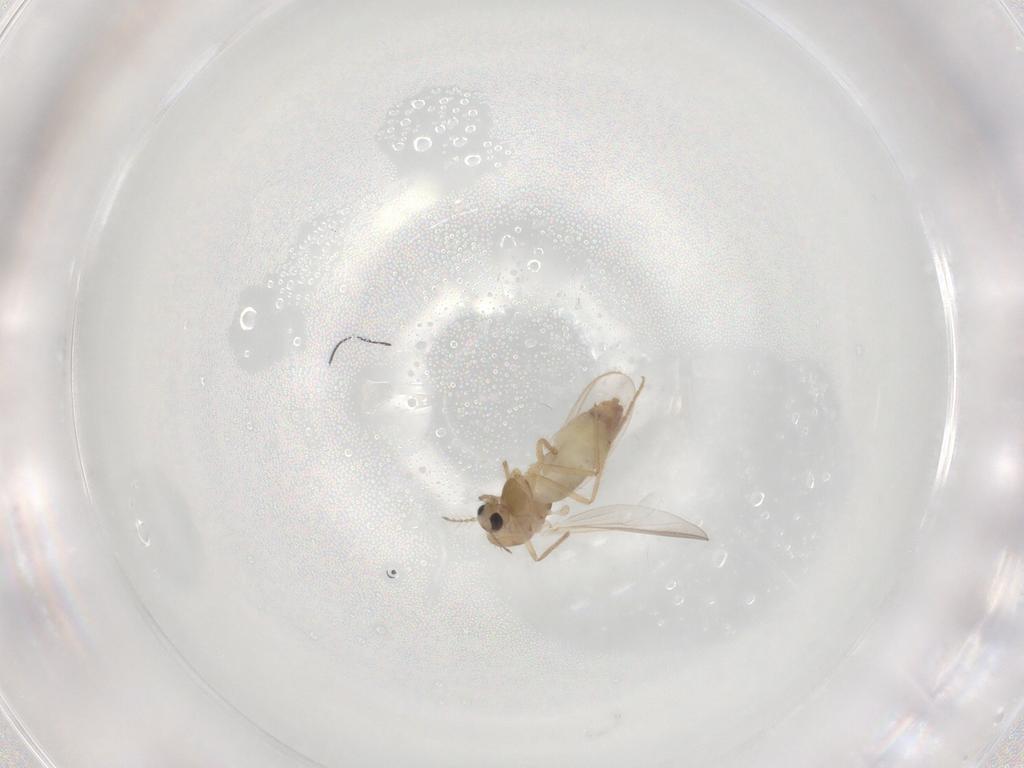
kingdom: Animalia
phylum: Arthropoda
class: Insecta
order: Diptera
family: Chironomidae
